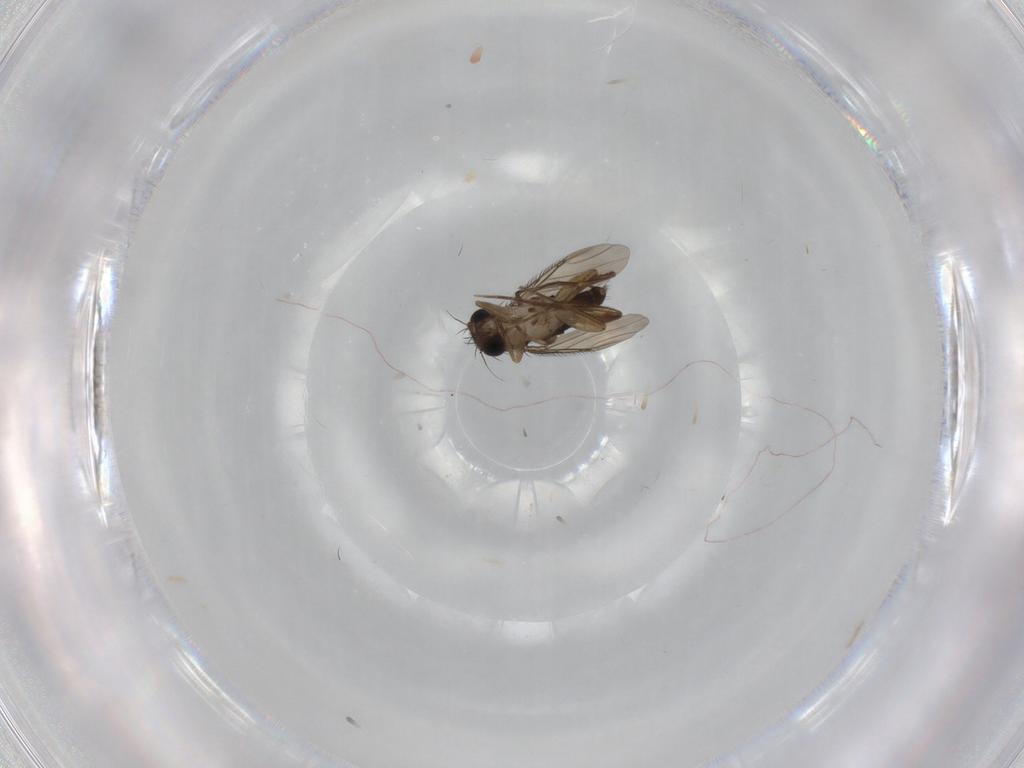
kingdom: Animalia
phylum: Arthropoda
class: Insecta
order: Diptera
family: Phoridae
